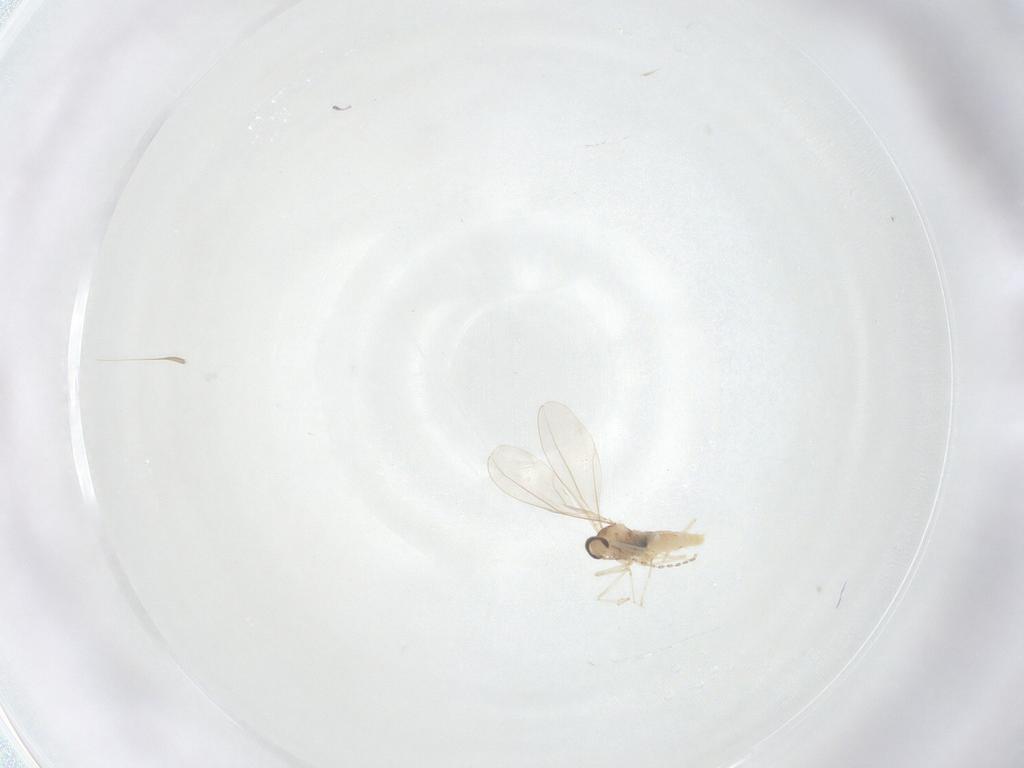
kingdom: Animalia
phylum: Arthropoda
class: Insecta
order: Diptera
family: Cecidomyiidae
